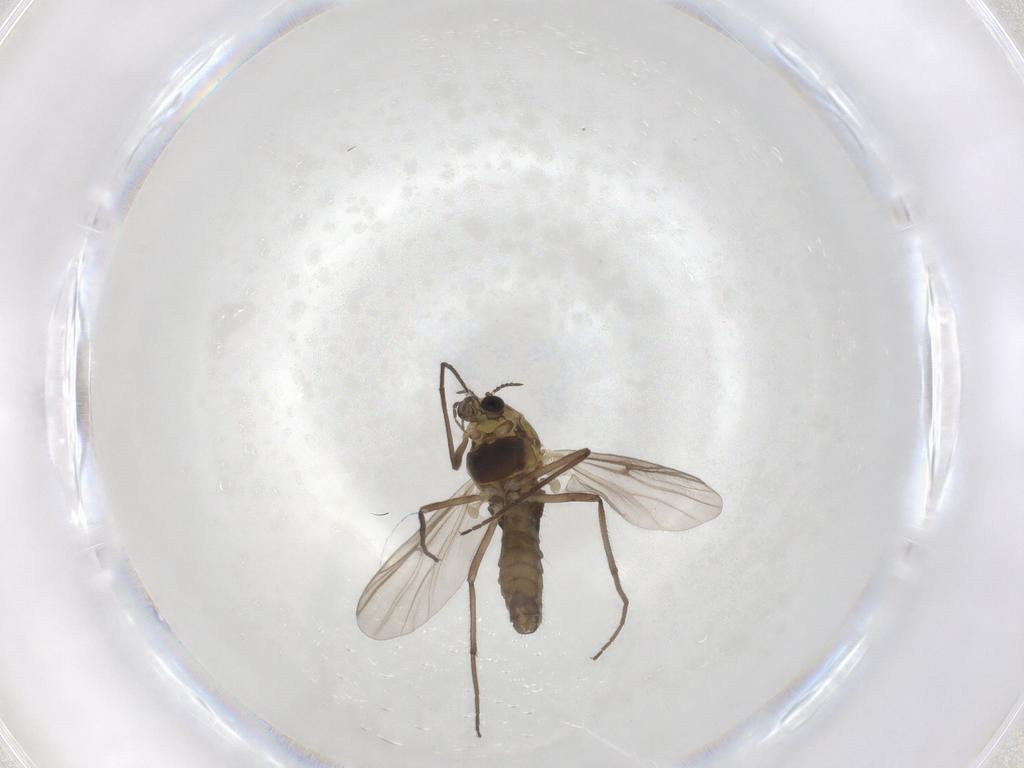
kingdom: Animalia
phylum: Arthropoda
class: Insecta
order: Diptera
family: Chironomidae
